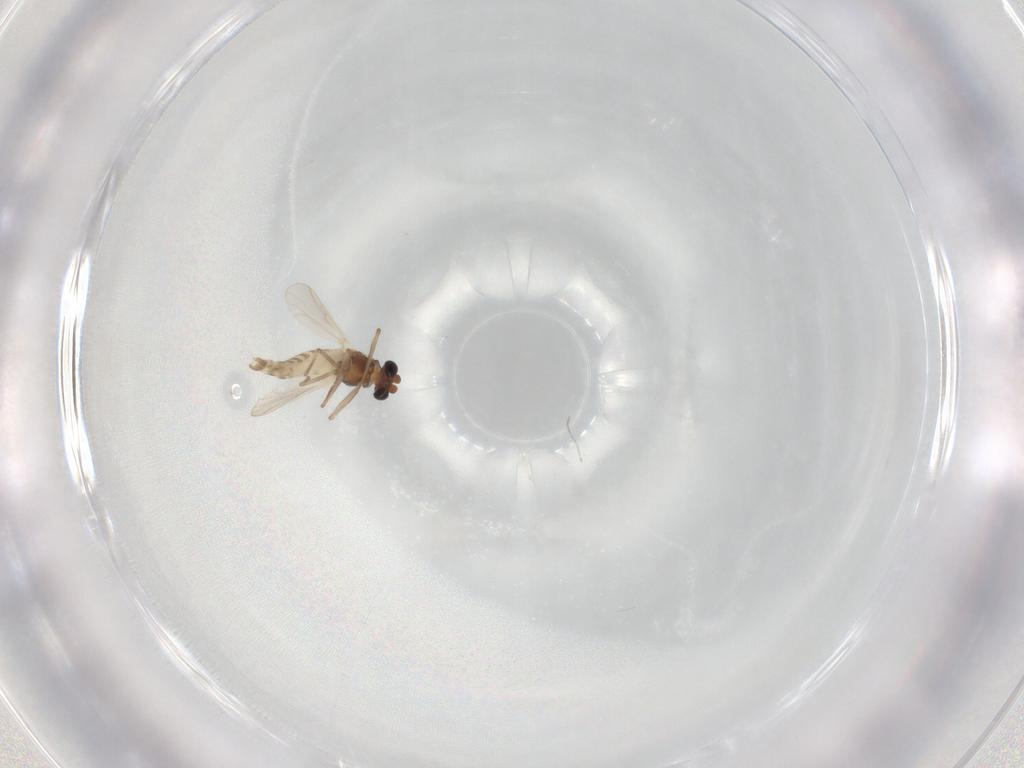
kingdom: Animalia
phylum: Arthropoda
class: Insecta
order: Diptera
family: Chironomidae
